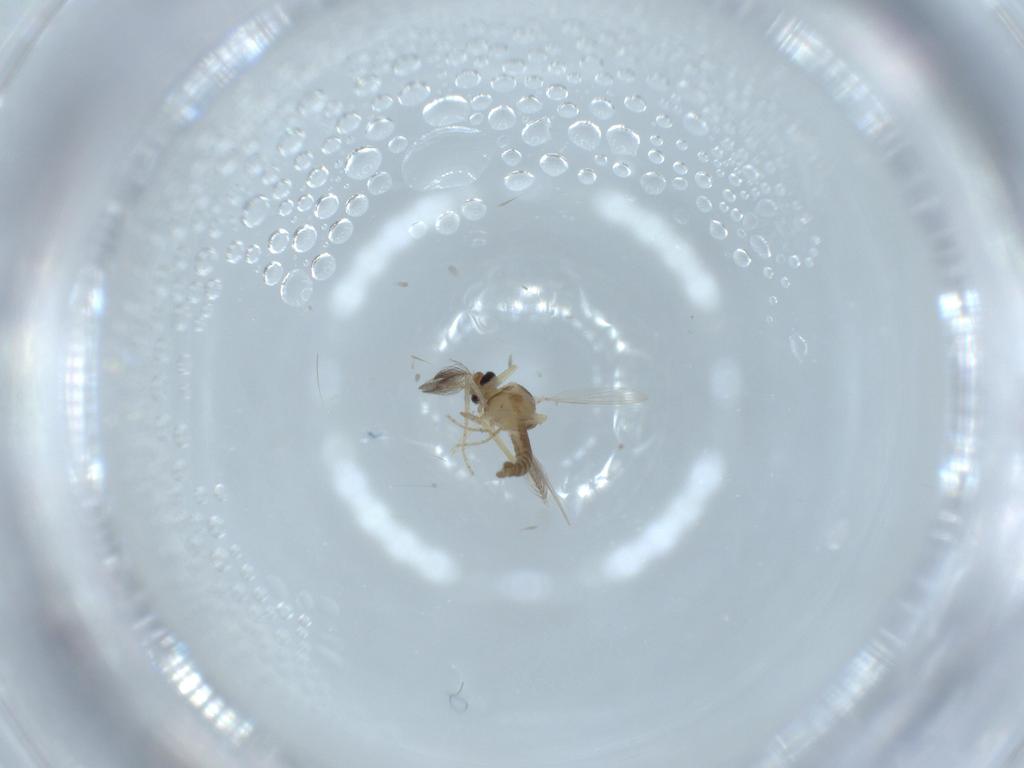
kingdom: Animalia
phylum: Arthropoda
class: Insecta
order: Diptera
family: Ceratopogonidae
